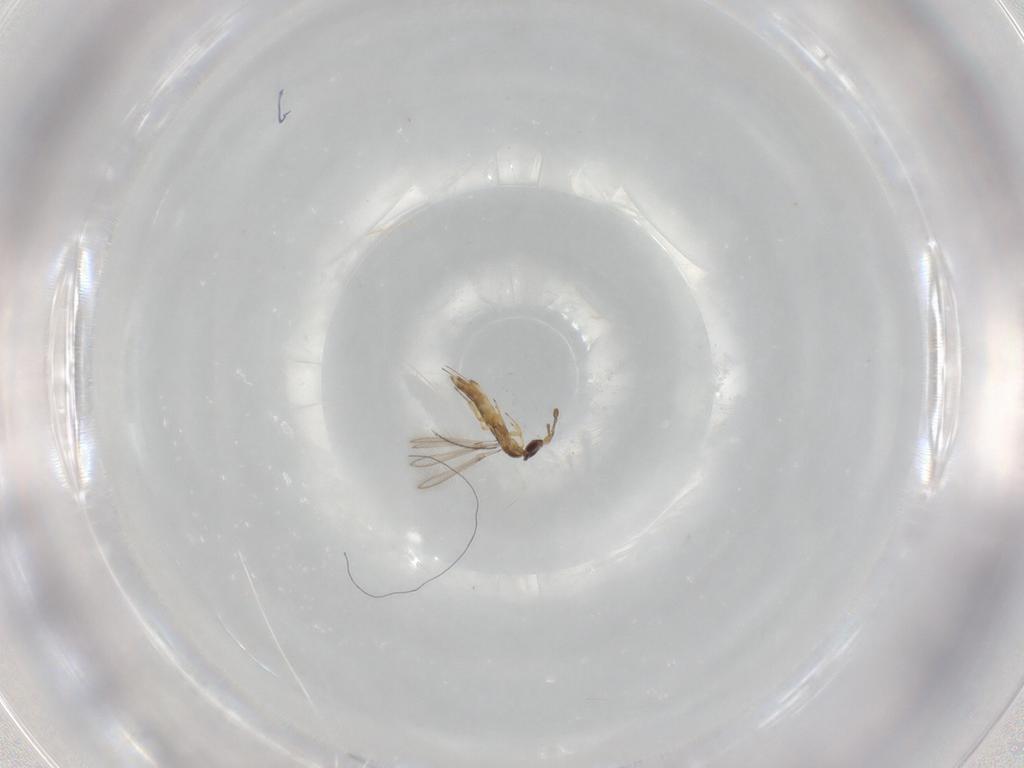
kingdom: Animalia
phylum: Arthropoda
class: Insecta
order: Hymenoptera
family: Mymaridae
